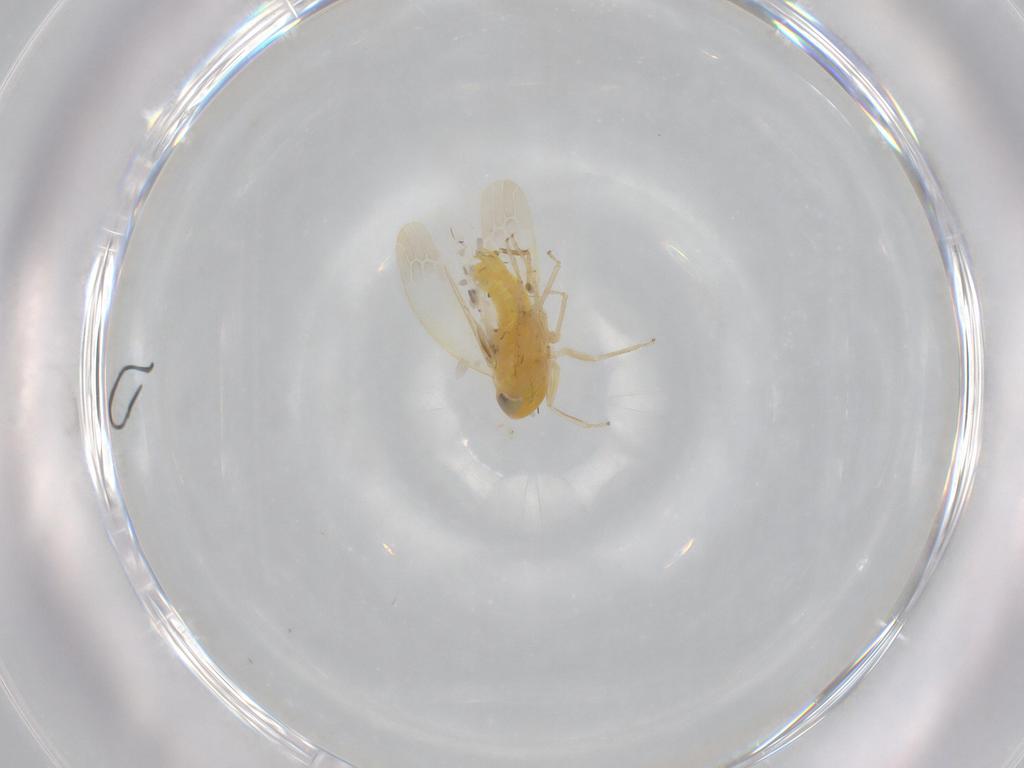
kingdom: Animalia
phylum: Arthropoda
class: Insecta
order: Hemiptera
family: Cicadellidae
